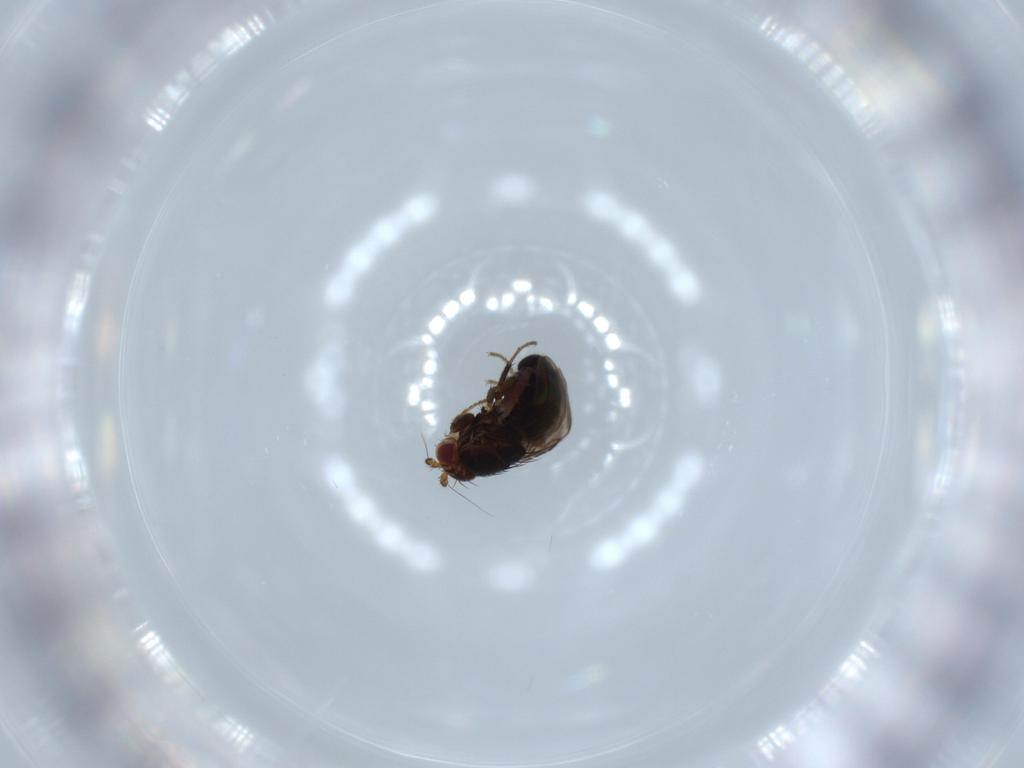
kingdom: Animalia
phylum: Arthropoda
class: Insecta
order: Diptera
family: Sphaeroceridae
